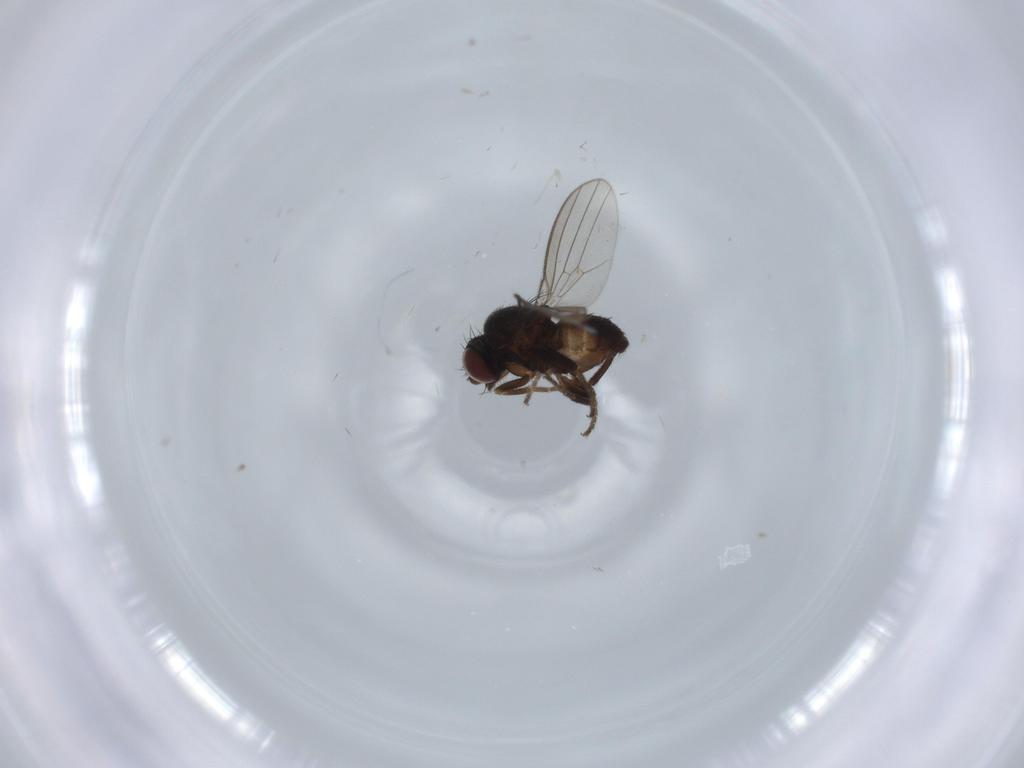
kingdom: Animalia
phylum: Arthropoda
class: Insecta
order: Diptera
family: Milichiidae
